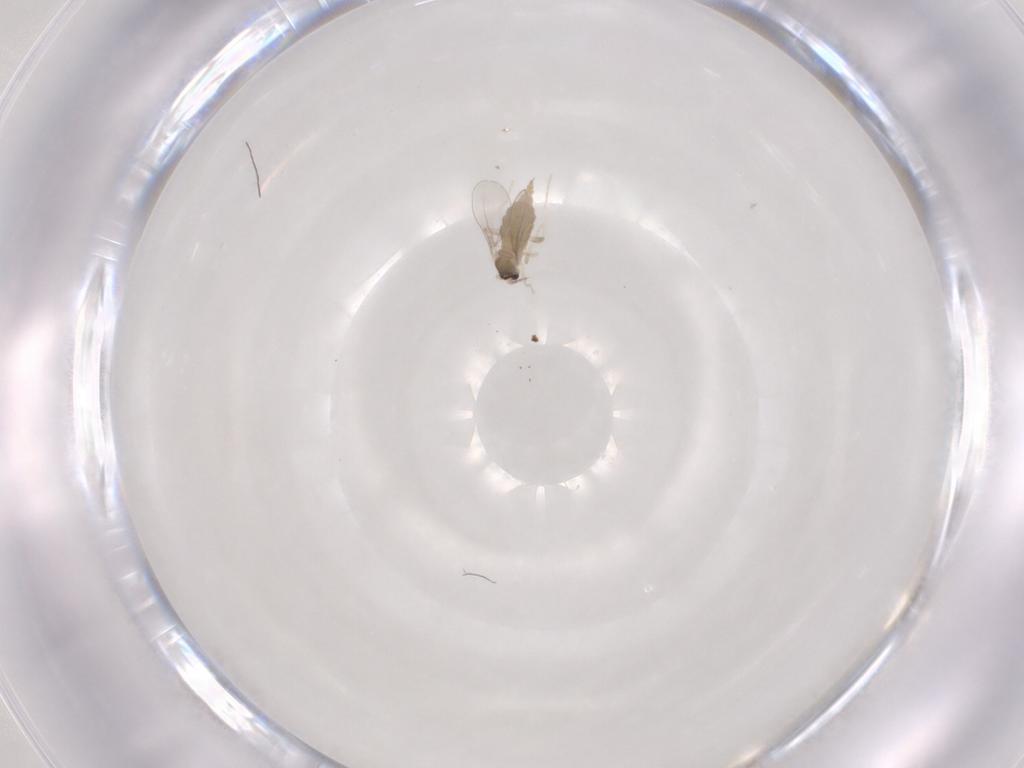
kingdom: Animalia
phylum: Arthropoda
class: Insecta
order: Diptera
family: Cecidomyiidae
